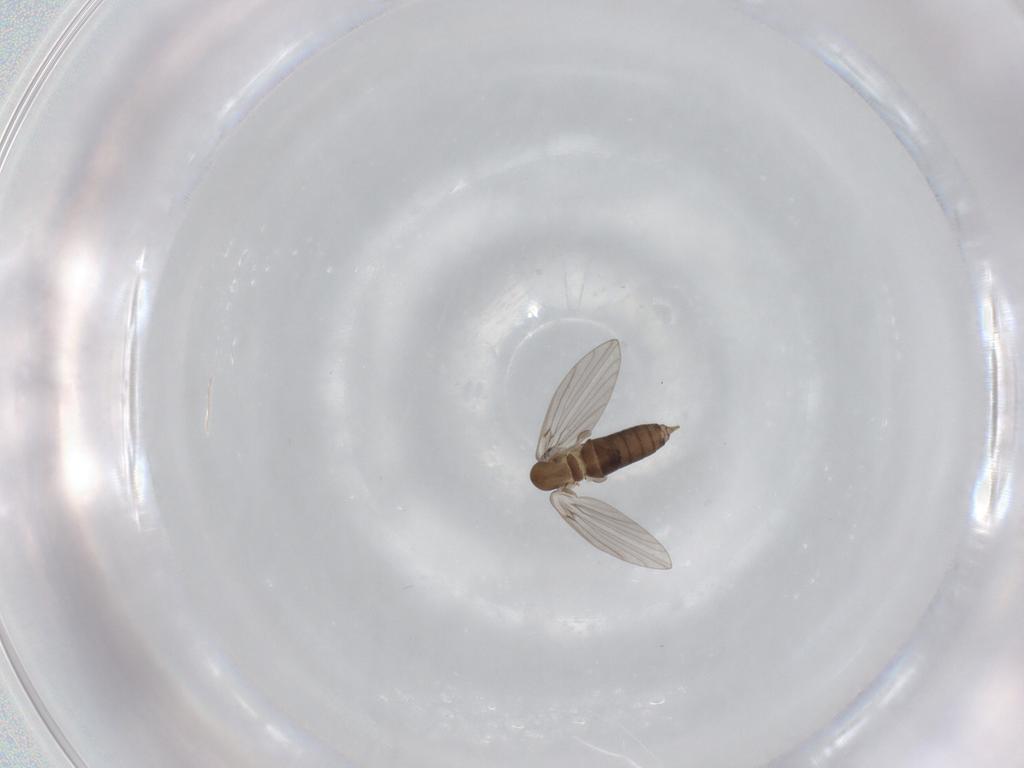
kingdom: Animalia
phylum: Arthropoda
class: Insecta
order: Diptera
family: Psychodidae
